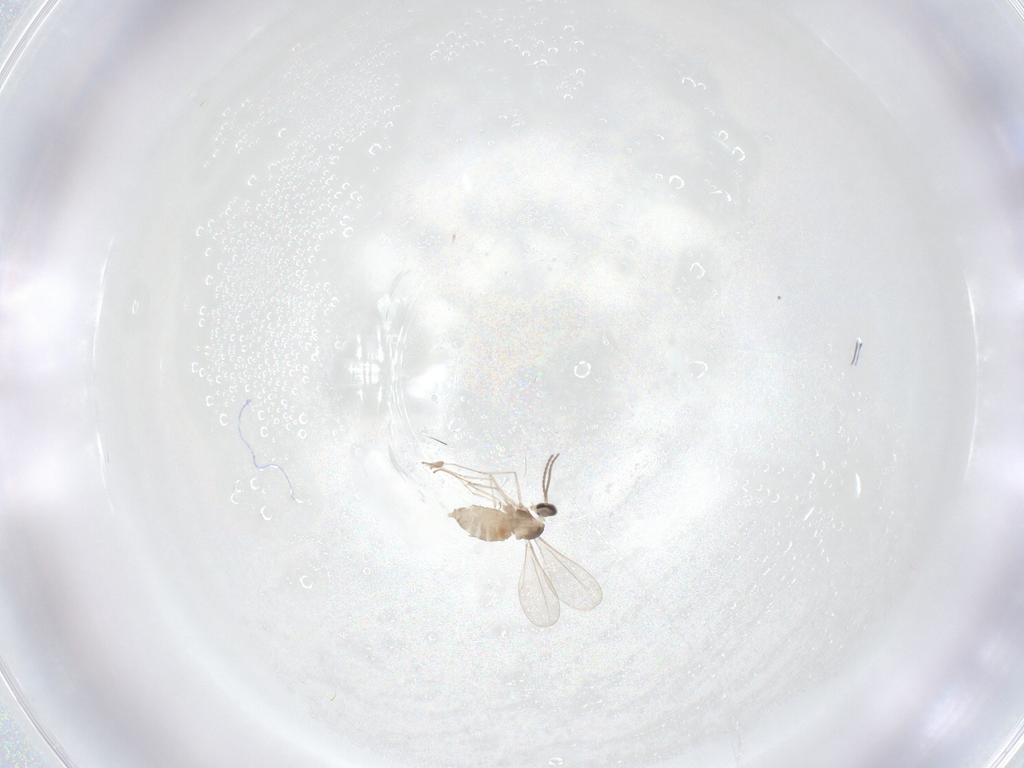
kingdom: Animalia
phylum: Arthropoda
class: Insecta
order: Diptera
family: Cecidomyiidae
